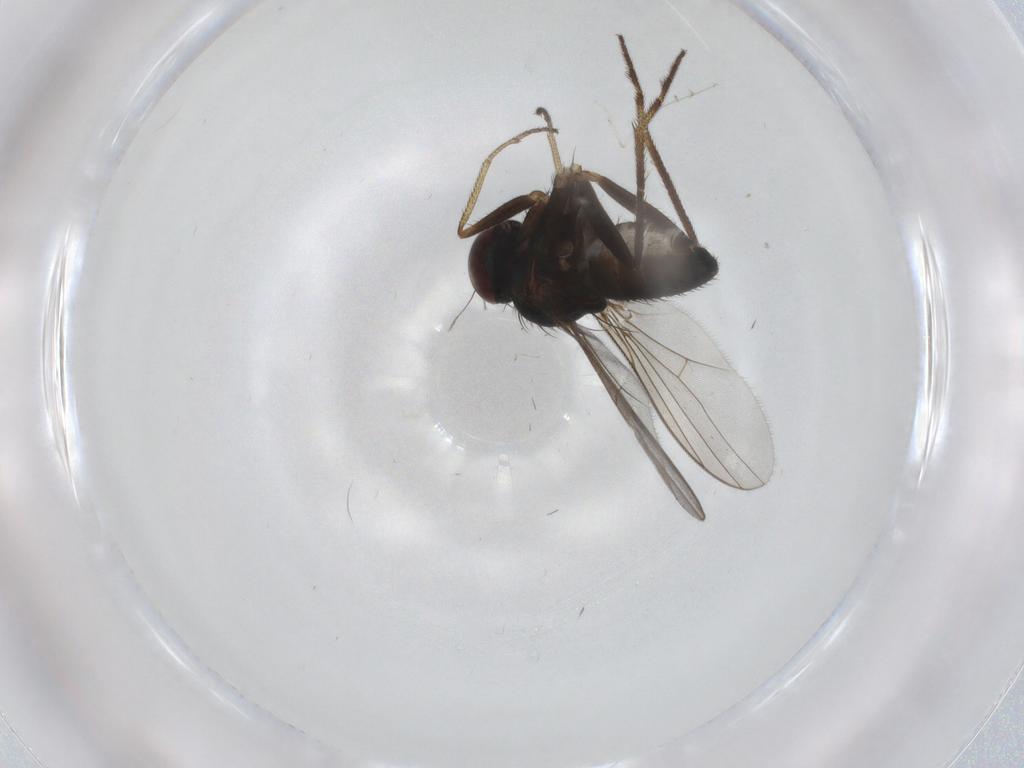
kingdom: Animalia
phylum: Arthropoda
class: Insecta
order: Diptera
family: Dolichopodidae
